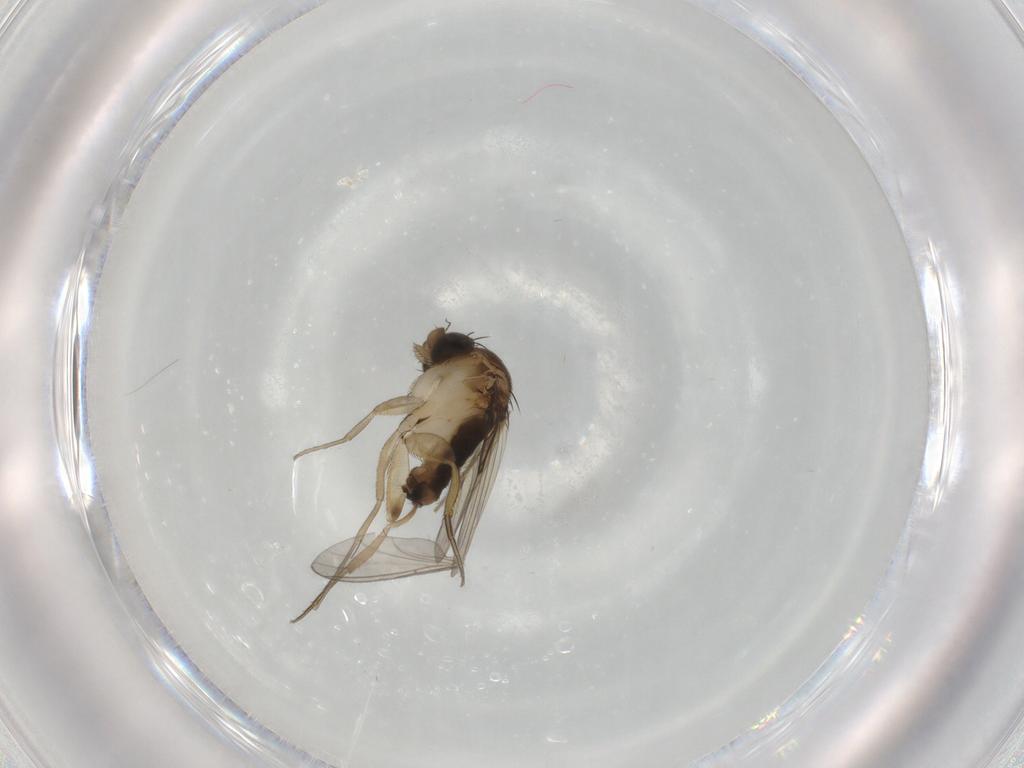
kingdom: Animalia
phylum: Arthropoda
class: Insecta
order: Diptera
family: Phoridae
